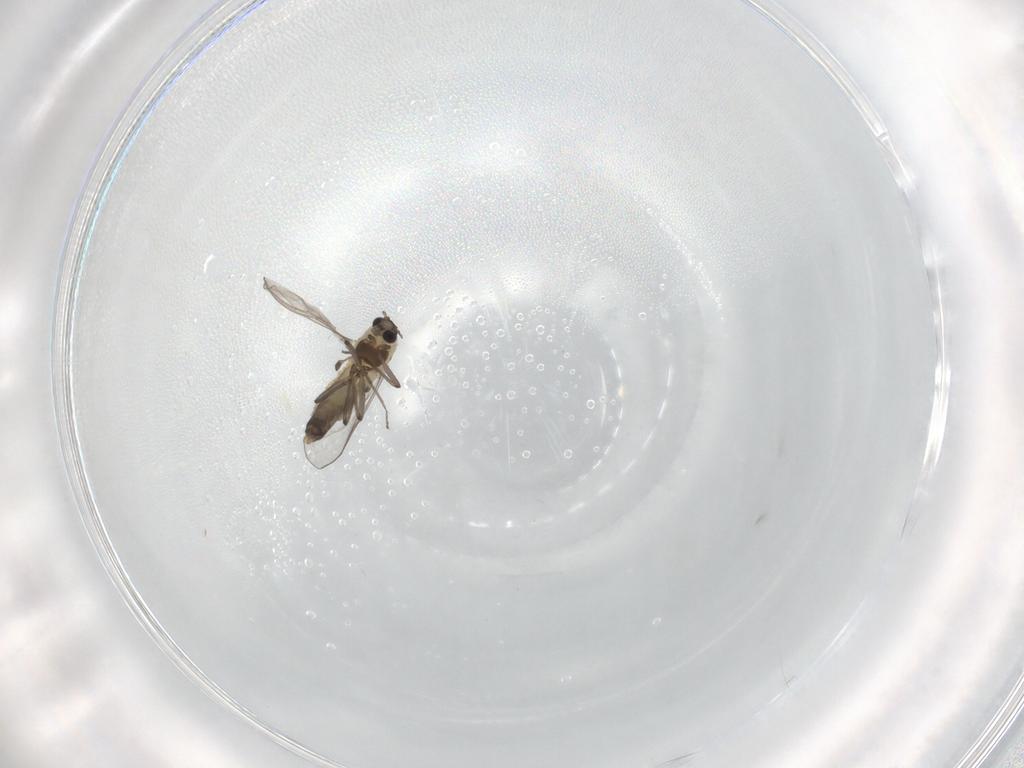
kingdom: Animalia
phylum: Arthropoda
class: Insecta
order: Diptera
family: Chironomidae
